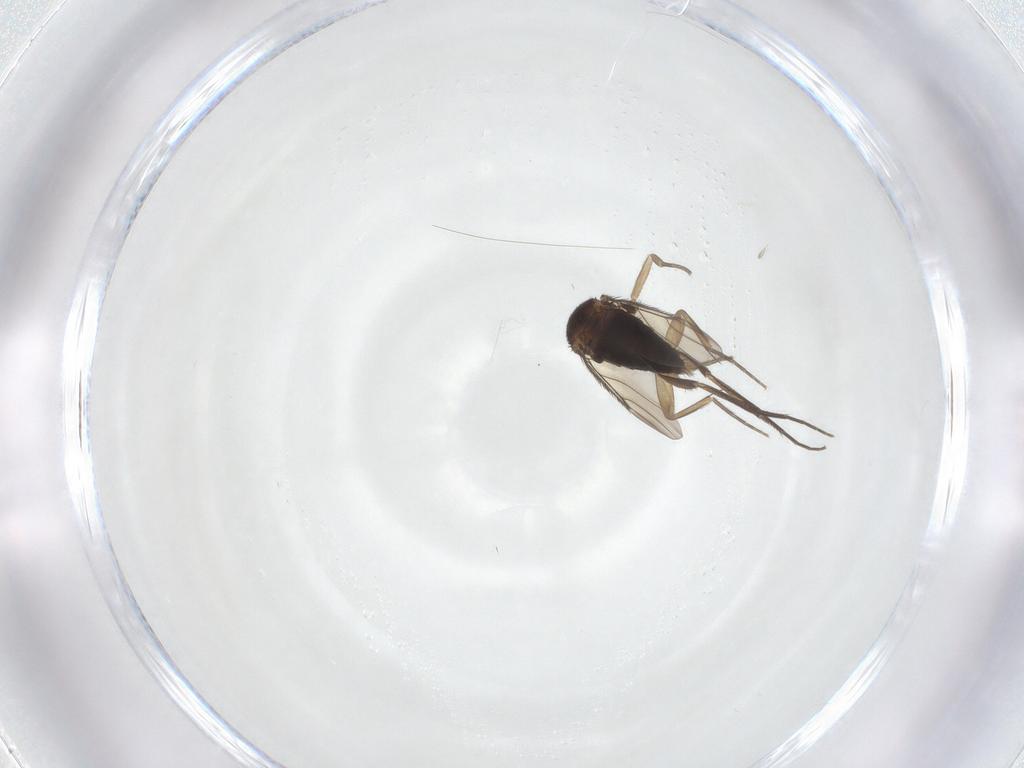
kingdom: Animalia
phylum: Arthropoda
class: Insecta
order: Diptera
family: Phoridae
